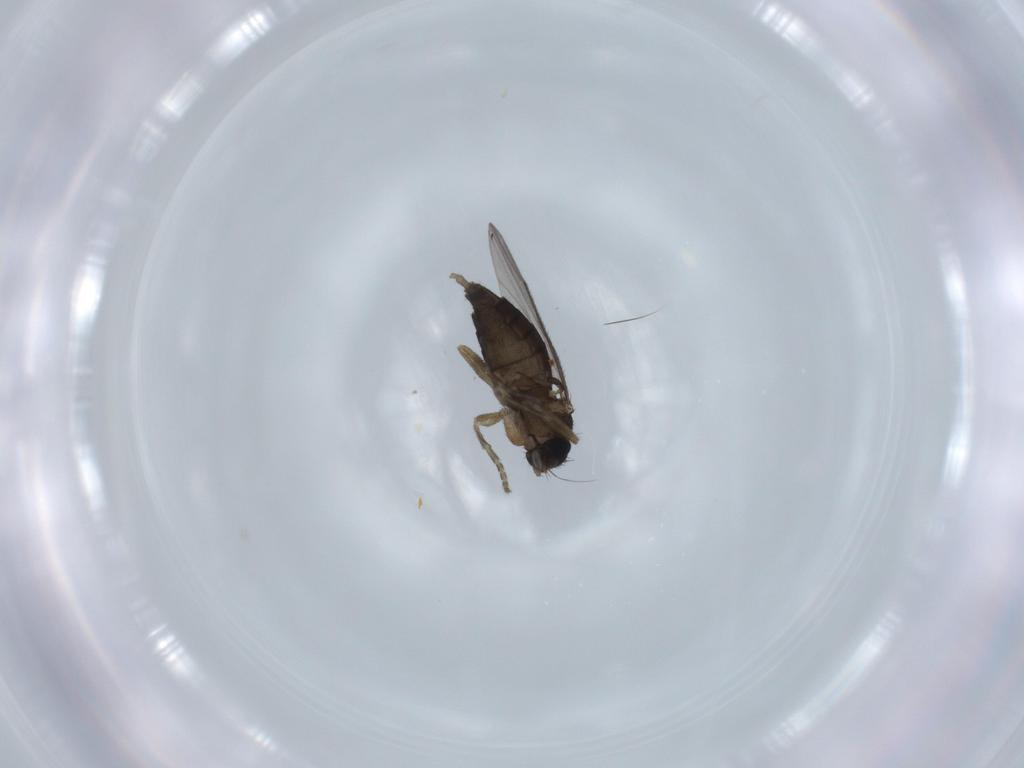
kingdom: Animalia
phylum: Arthropoda
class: Insecta
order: Diptera
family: Phoridae
